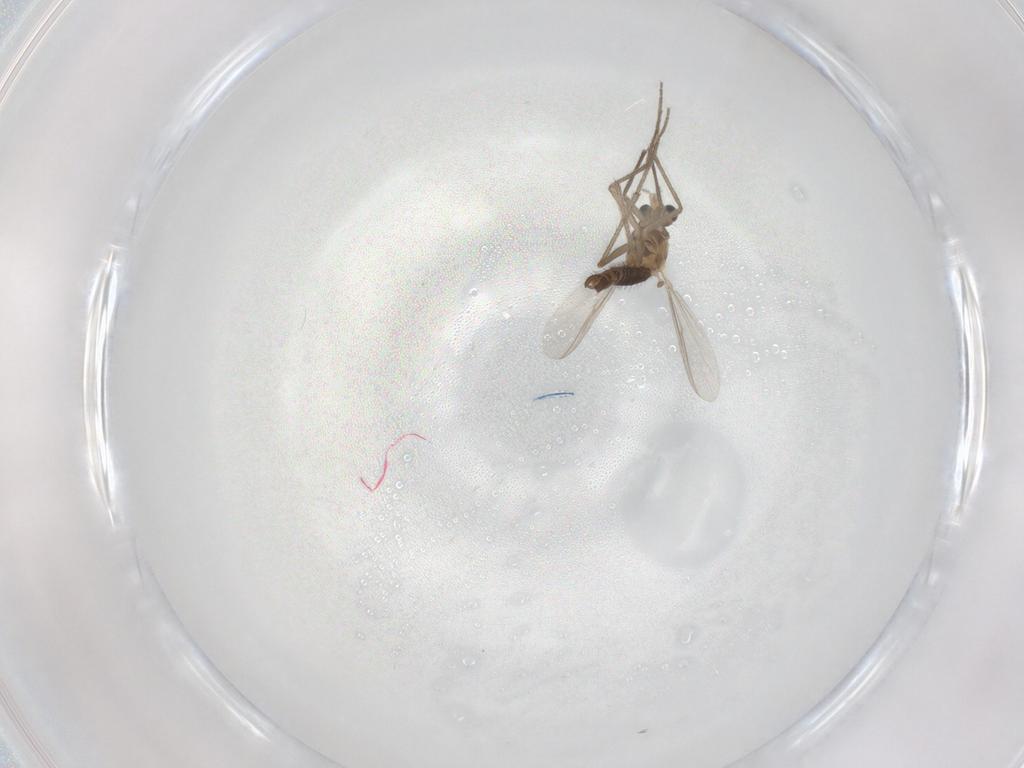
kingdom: Animalia
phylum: Arthropoda
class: Insecta
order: Diptera
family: Chironomidae
